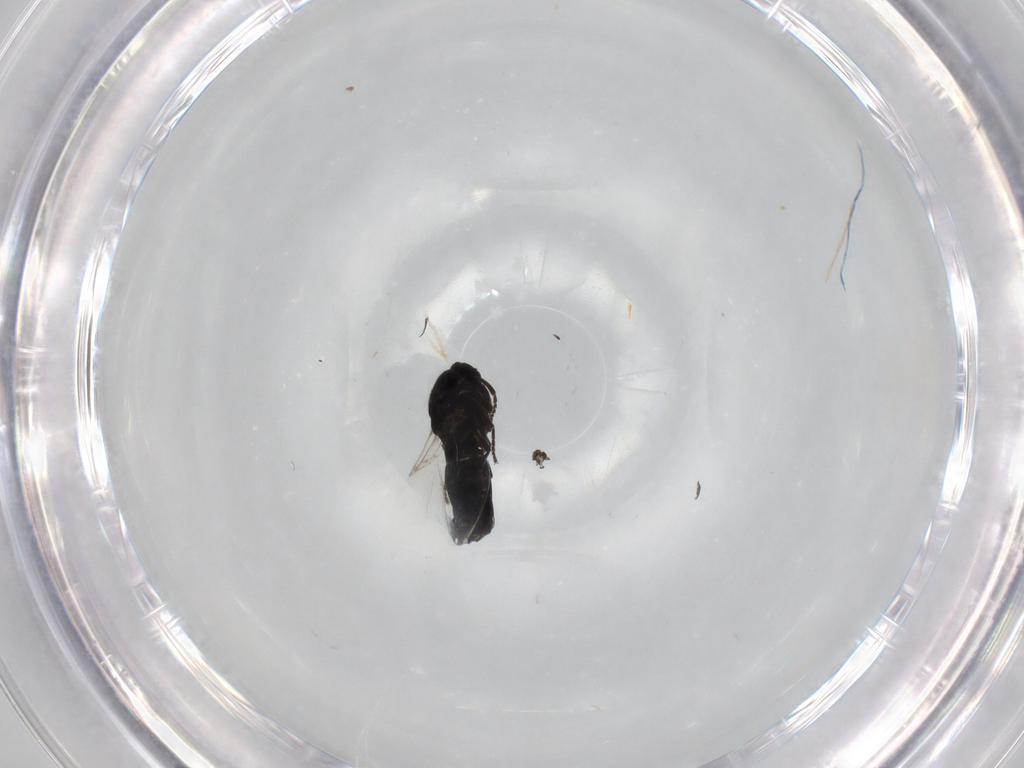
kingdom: Animalia
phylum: Arthropoda
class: Insecta
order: Diptera
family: Scatopsidae
